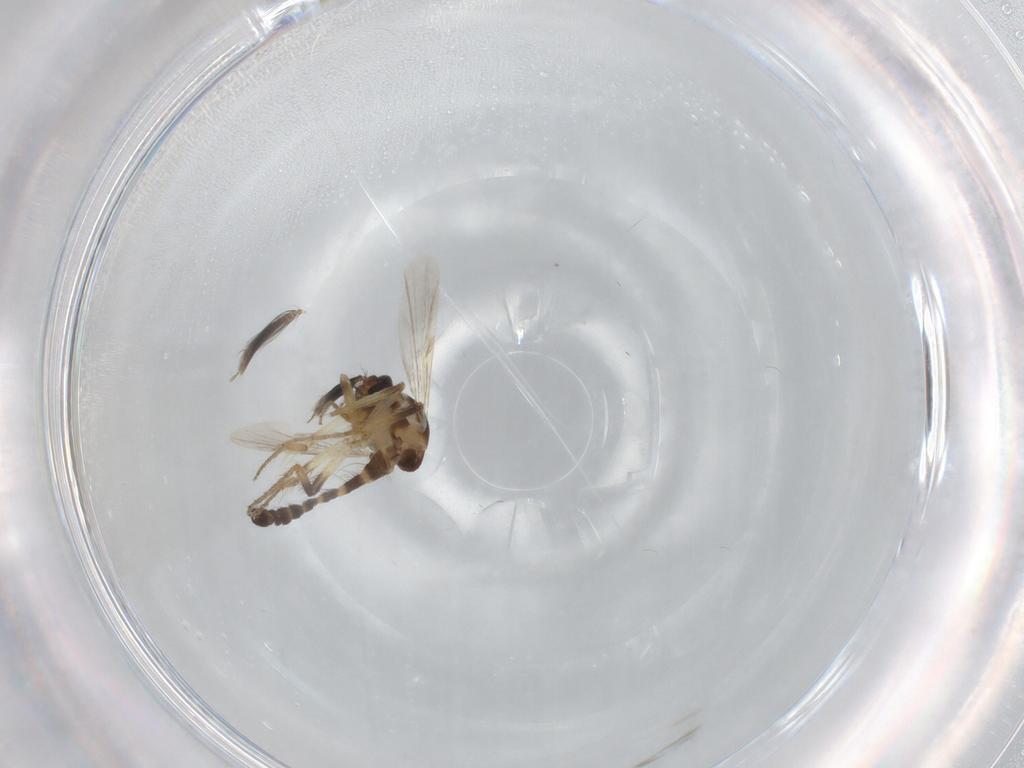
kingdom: Animalia
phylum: Arthropoda
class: Insecta
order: Diptera
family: Ceratopogonidae
